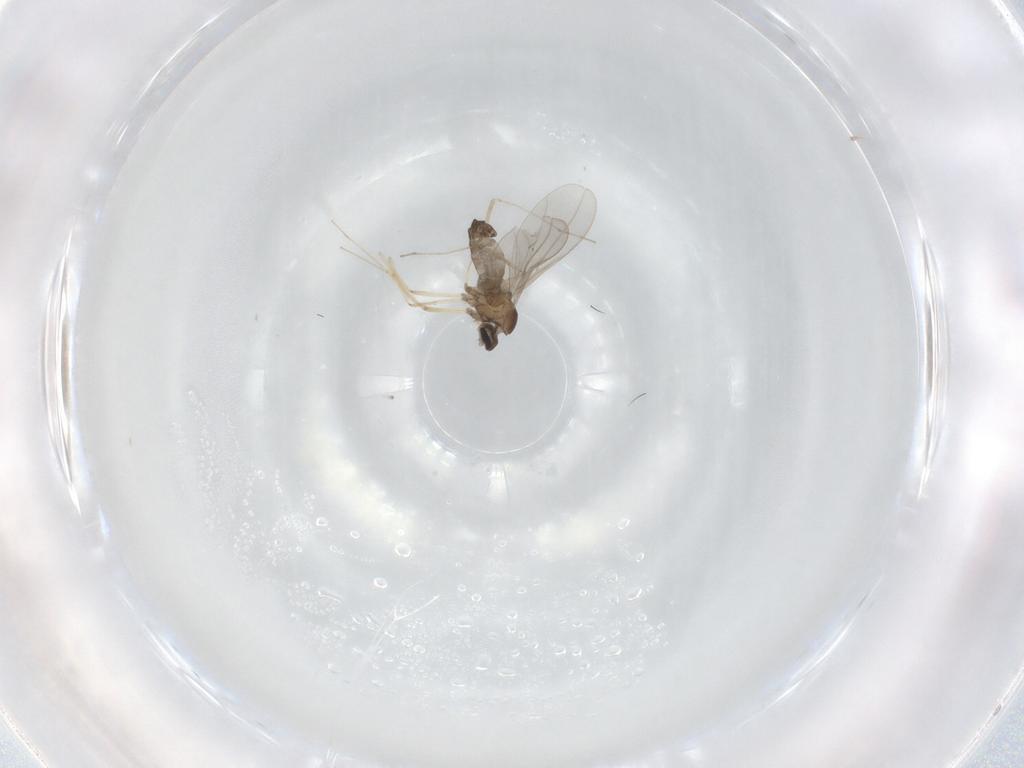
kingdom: Animalia
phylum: Arthropoda
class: Insecta
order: Diptera
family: Cecidomyiidae
